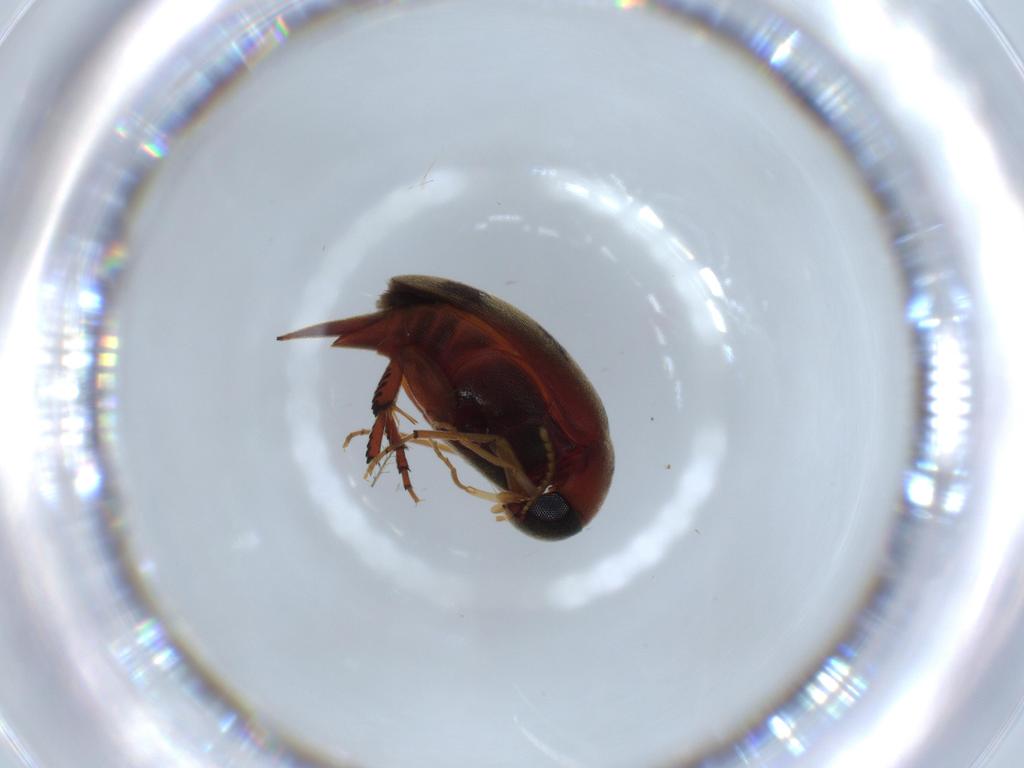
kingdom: Animalia
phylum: Arthropoda
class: Insecta
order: Coleoptera
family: Mordellidae
